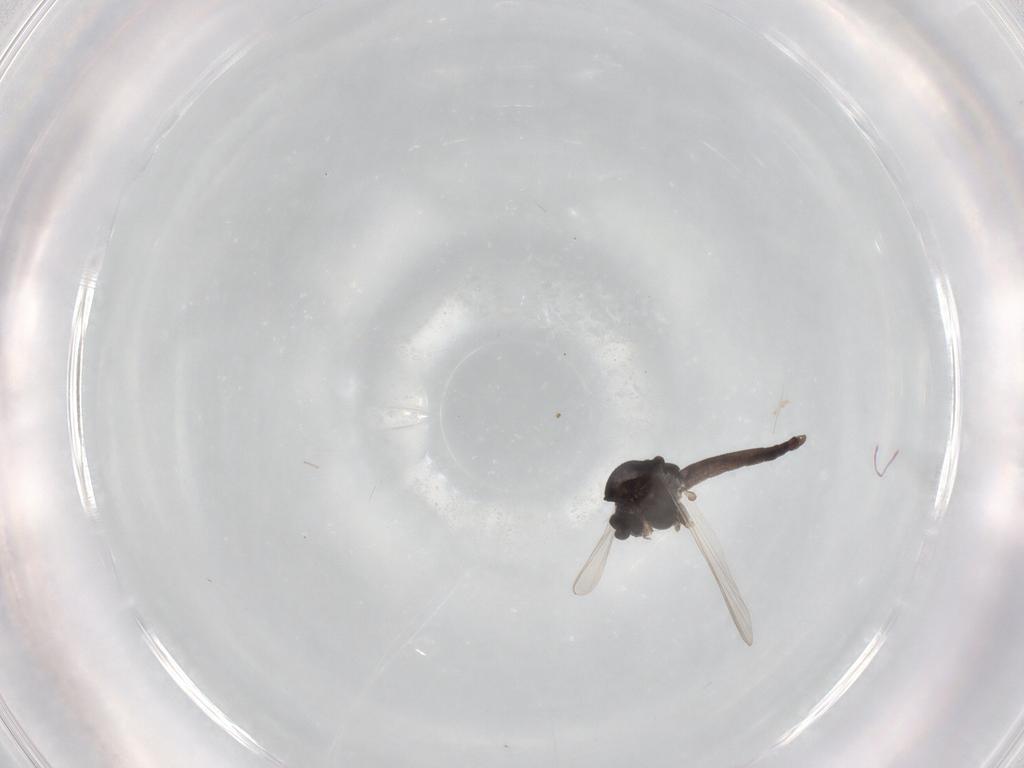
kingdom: Animalia
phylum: Arthropoda
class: Insecta
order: Diptera
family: Chironomidae
